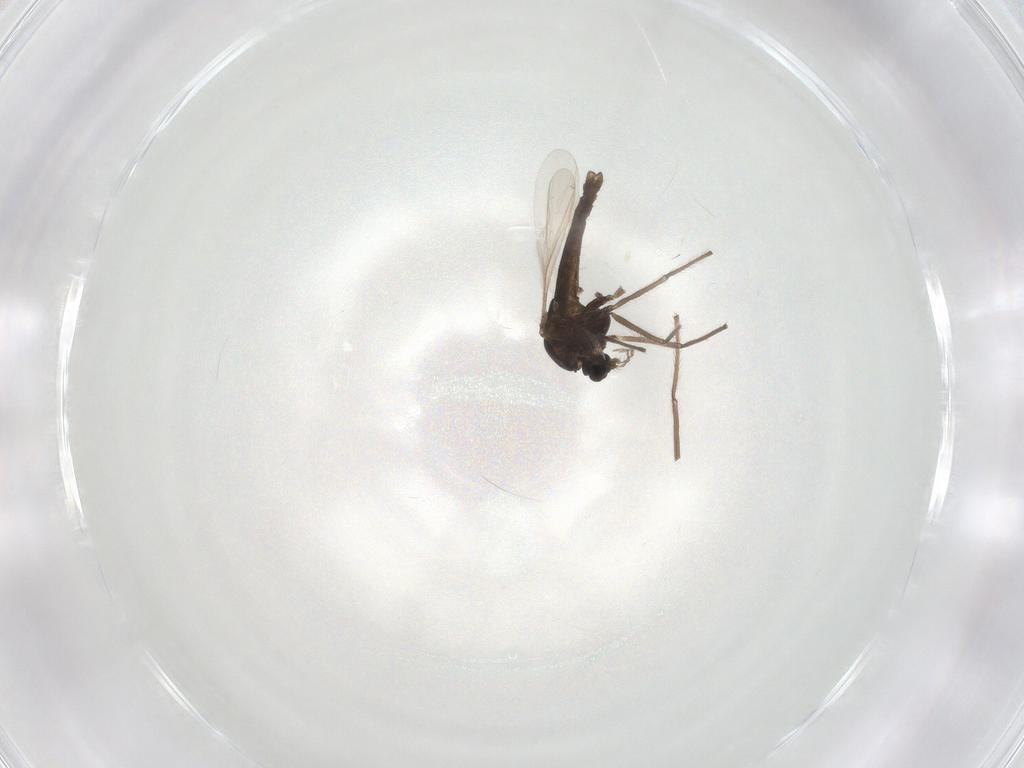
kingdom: Animalia
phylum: Arthropoda
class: Insecta
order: Diptera
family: Chironomidae
